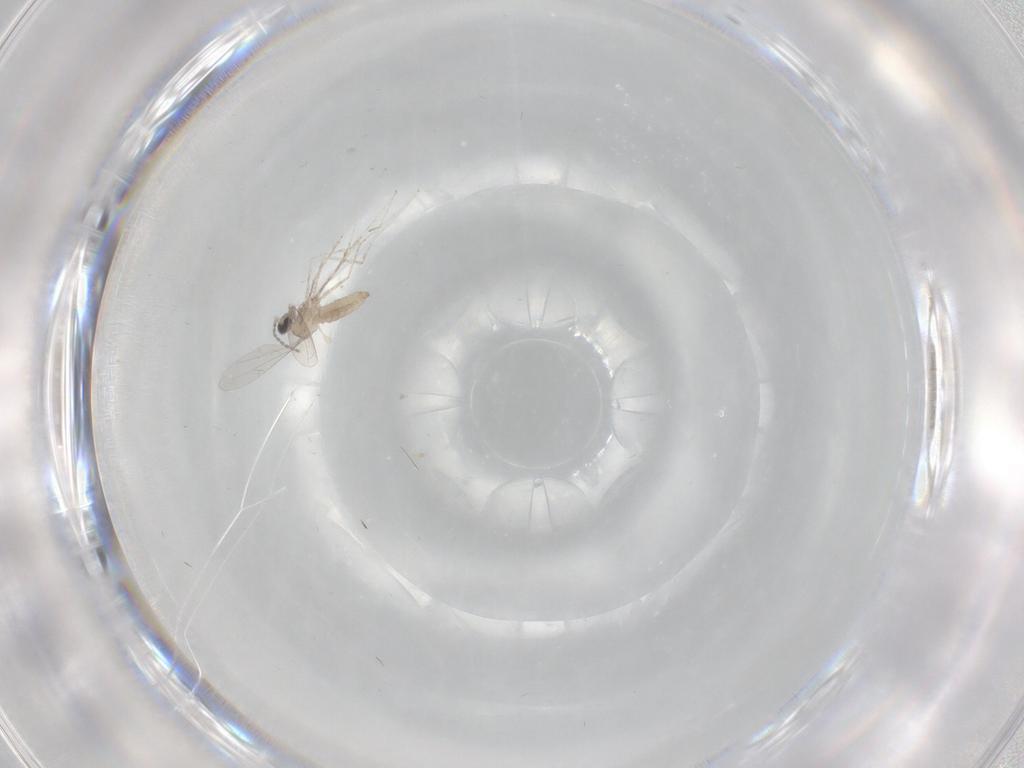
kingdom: Animalia
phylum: Arthropoda
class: Insecta
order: Diptera
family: Cecidomyiidae
